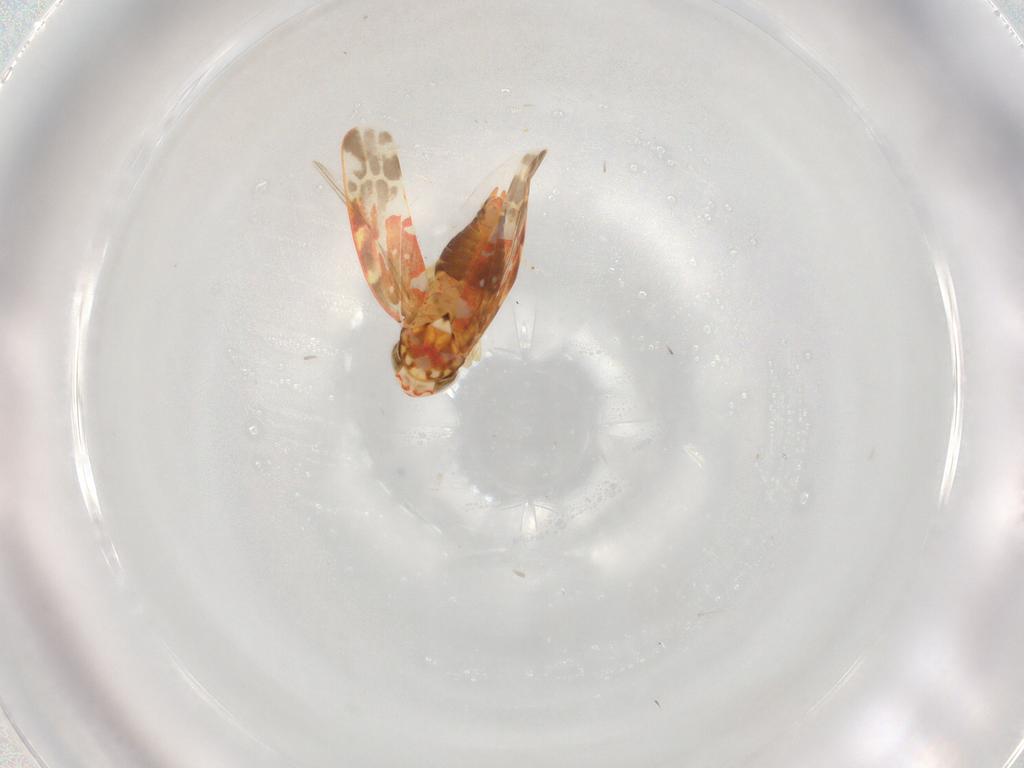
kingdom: Animalia
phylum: Arthropoda
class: Insecta
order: Hemiptera
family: Cicadellidae
